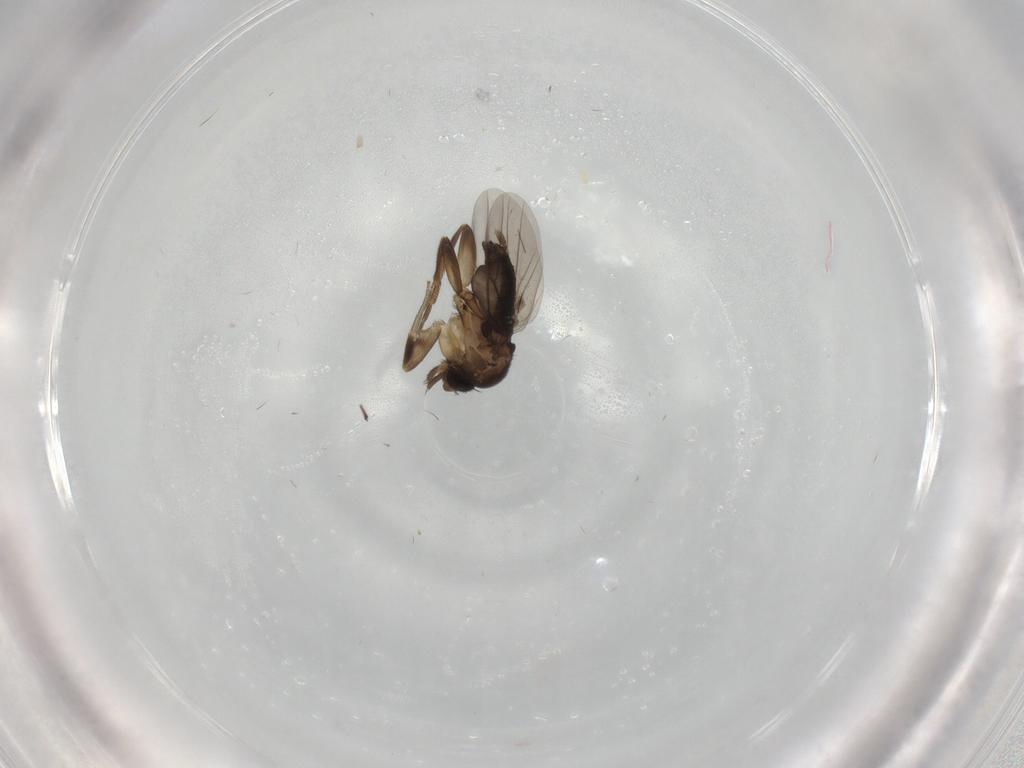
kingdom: Animalia
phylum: Arthropoda
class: Insecta
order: Diptera
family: Phoridae
